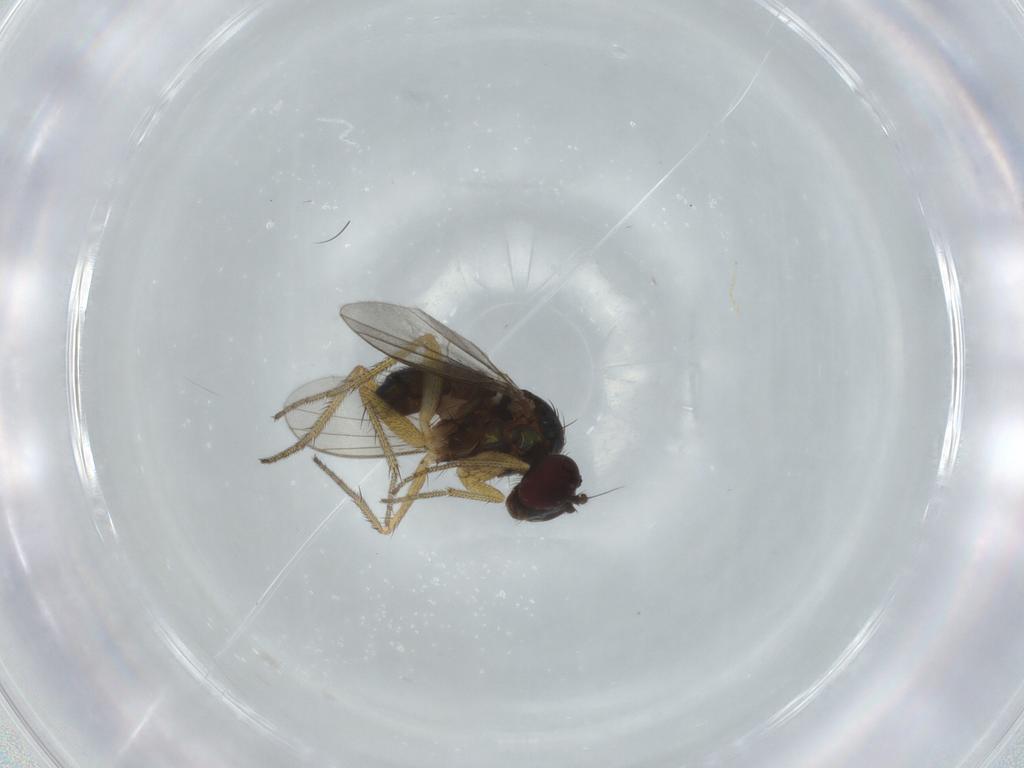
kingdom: Animalia
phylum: Arthropoda
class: Insecta
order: Diptera
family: Dolichopodidae
